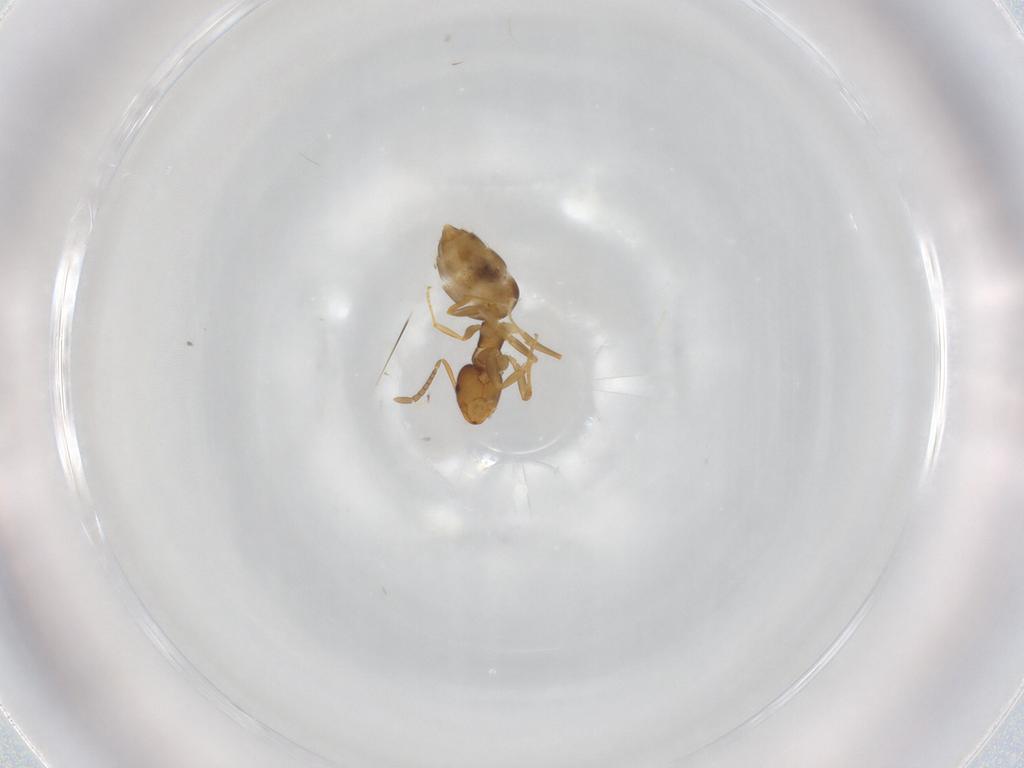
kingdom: Animalia
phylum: Arthropoda
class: Insecta
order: Hymenoptera
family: Formicidae
